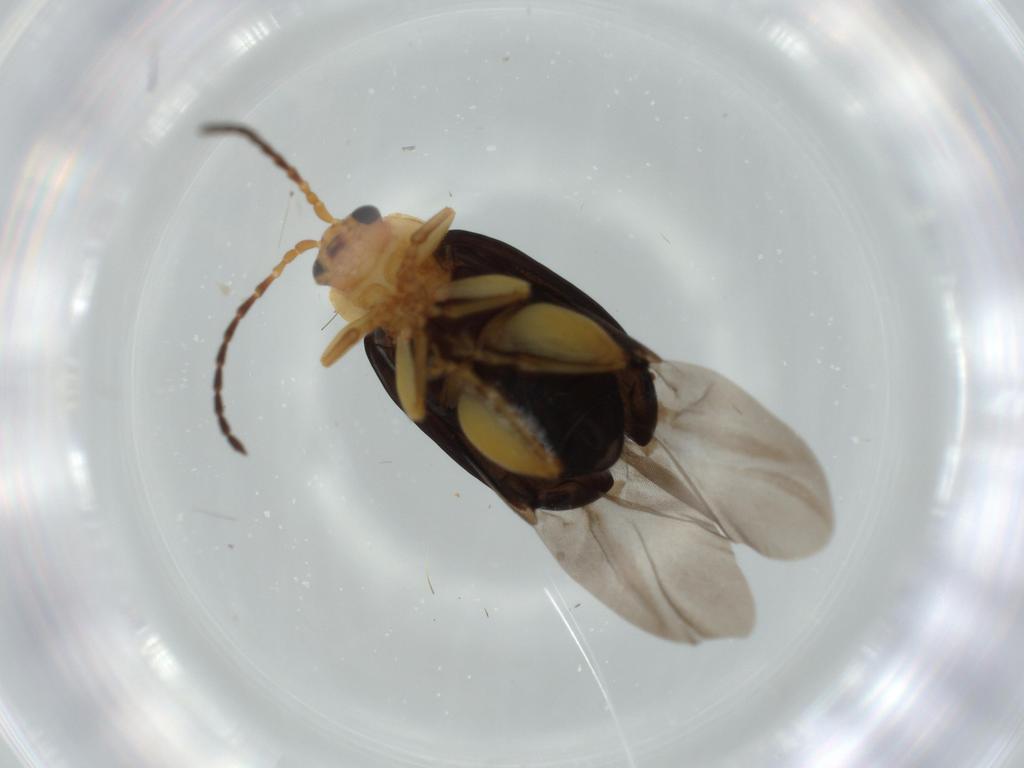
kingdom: Animalia
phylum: Arthropoda
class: Insecta
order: Coleoptera
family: Chrysomelidae
